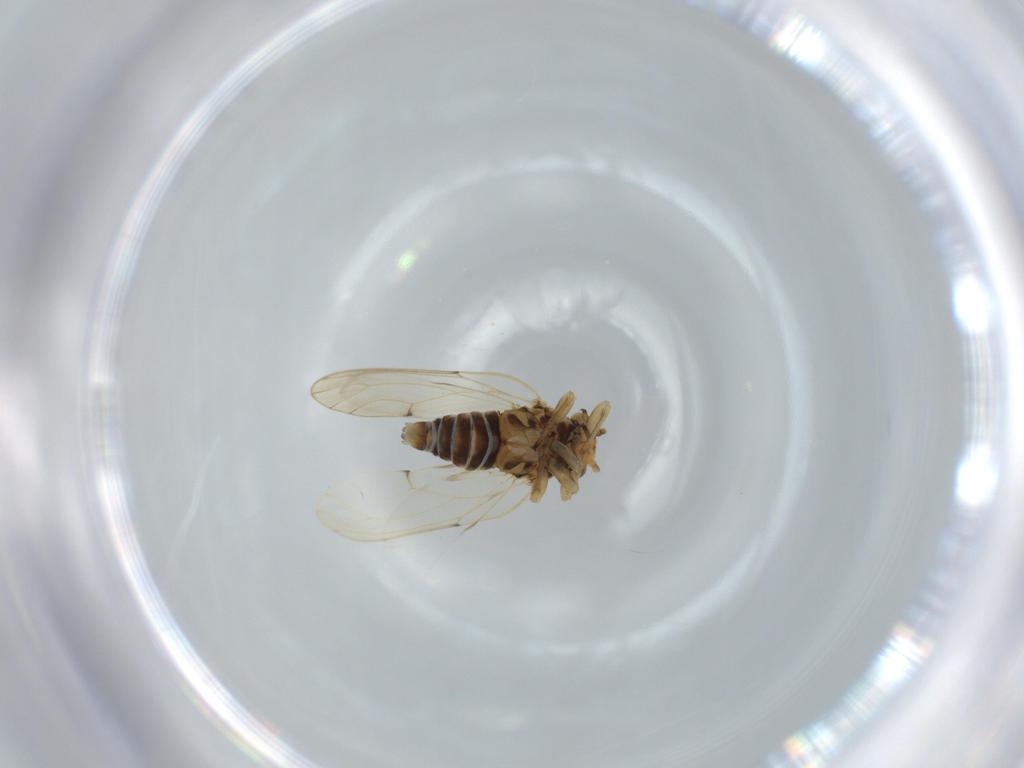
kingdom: Animalia
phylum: Arthropoda
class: Insecta
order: Hemiptera
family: Aphalaridae
